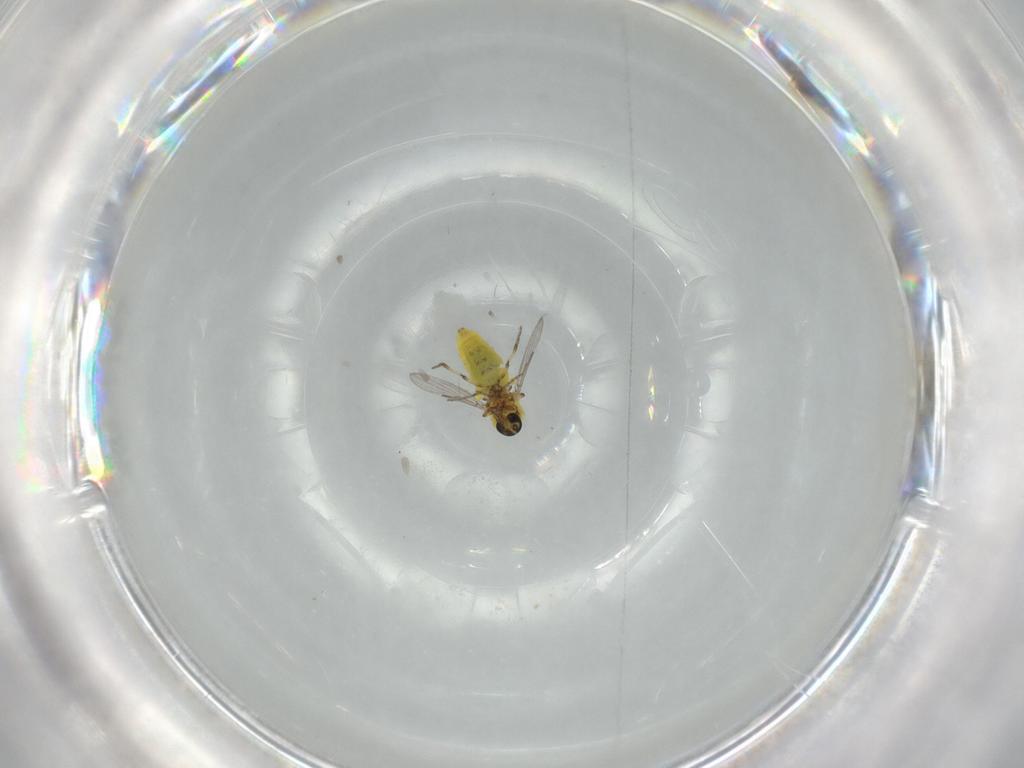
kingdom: Animalia
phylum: Arthropoda
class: Insecta
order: Diptera
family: Ceratopogonidae
